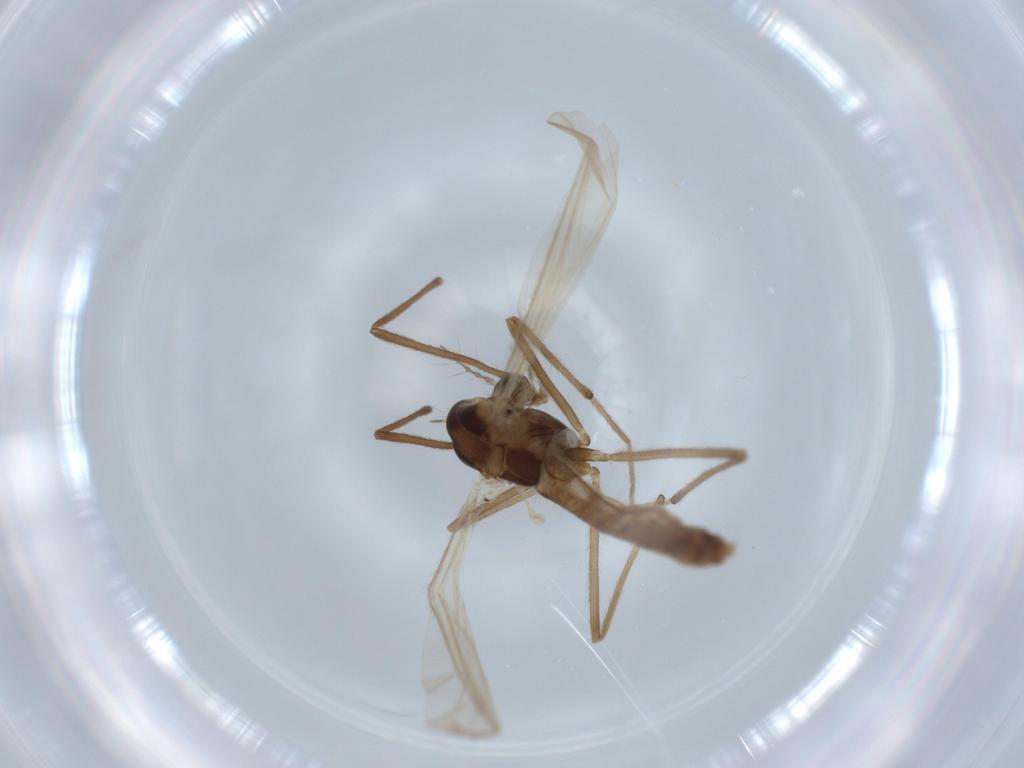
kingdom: Animalia
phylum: Arthropoda
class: Insecta
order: Diptera
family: Chironomidae
